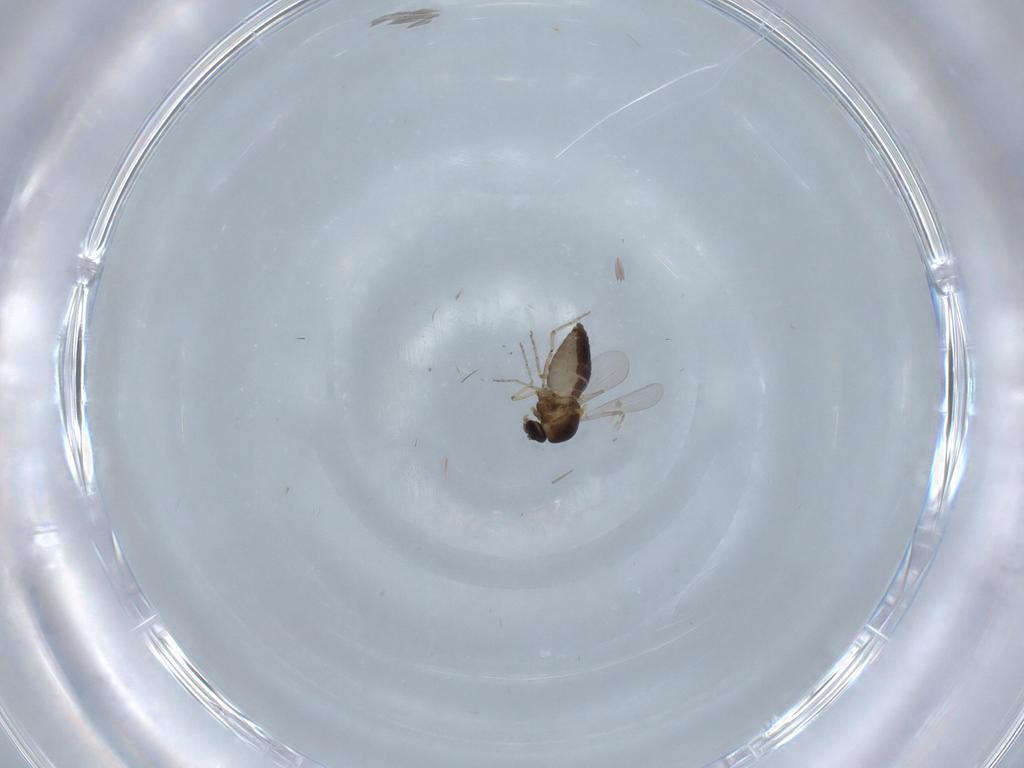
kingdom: Animalia
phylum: Arthropoda
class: Insecta
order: Diptera
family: Ceratopogonidae
